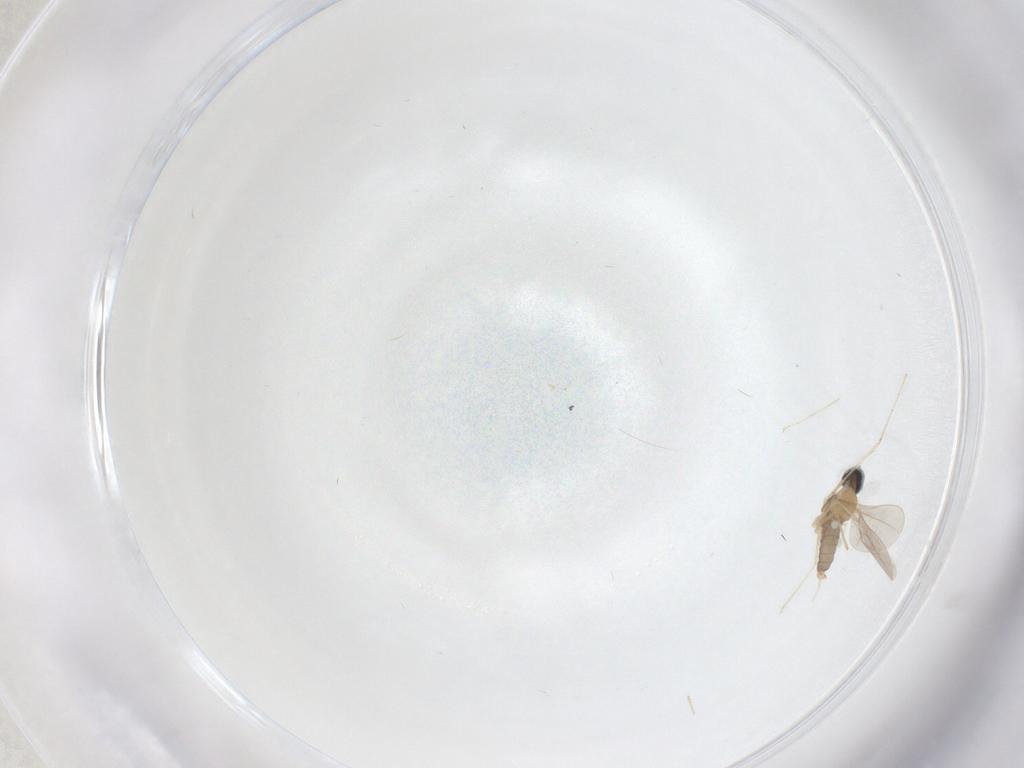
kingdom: Animalia
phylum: Arthropoda
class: Insecta
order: Diptera
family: Cecidomyiidae
